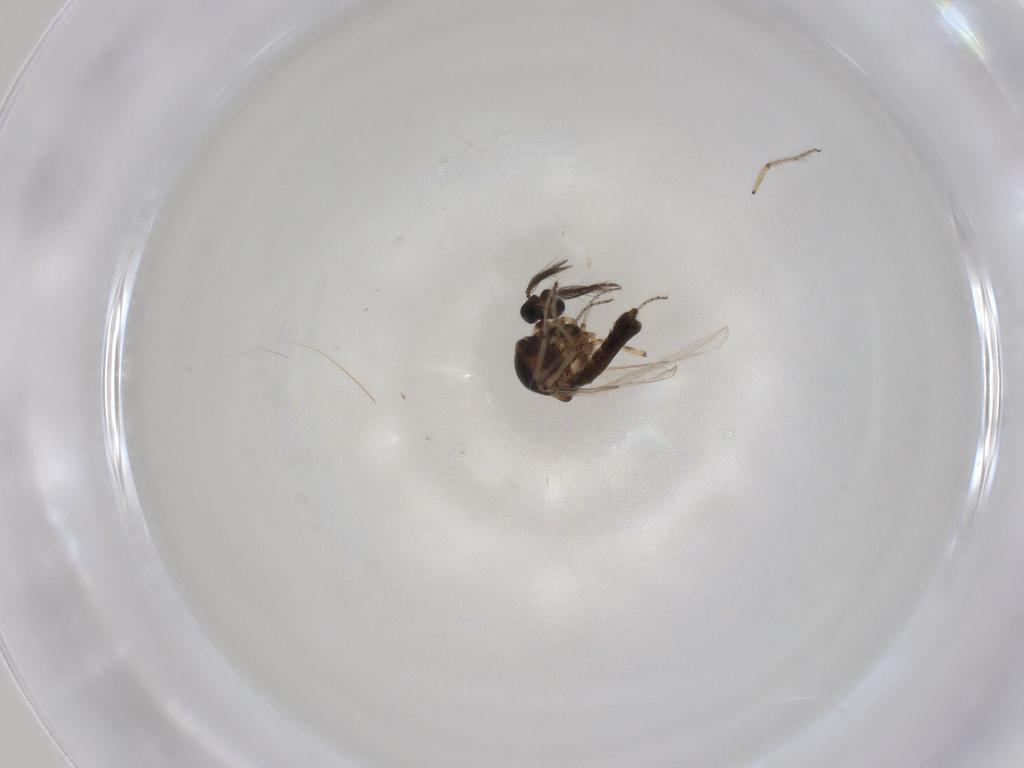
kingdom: Animalia
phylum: Arthropoda
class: Insecta
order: Diptera
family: Ceratopogonidae
